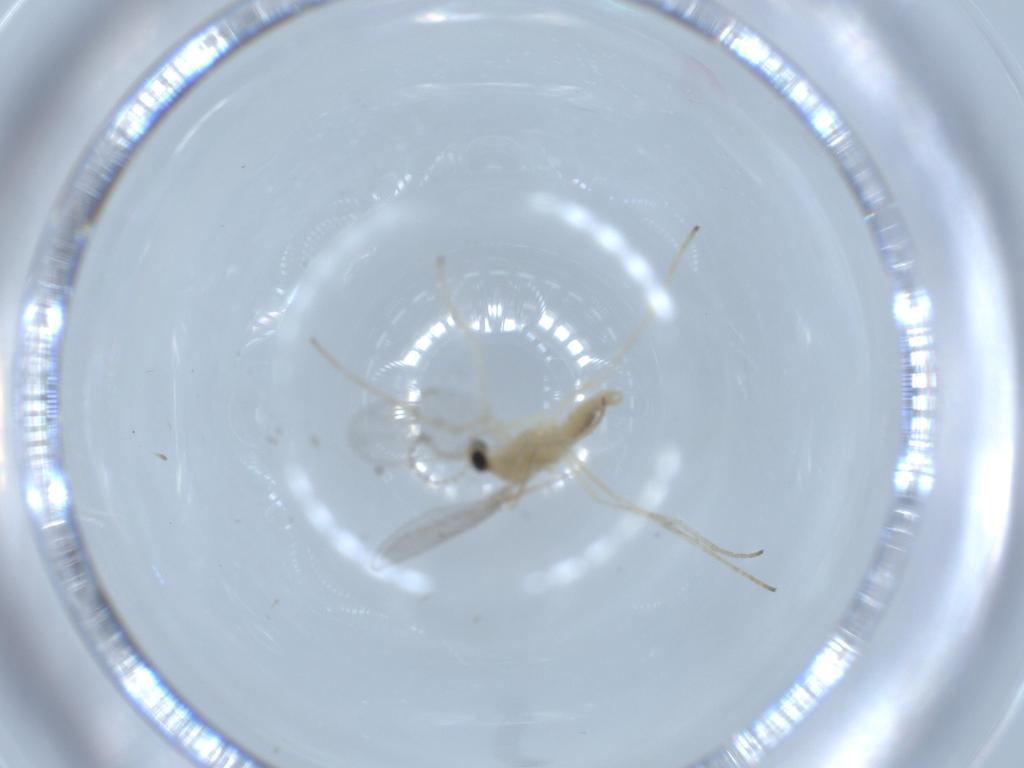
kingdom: Animalia
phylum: Arthropoda
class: Insecta
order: Diptera
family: Cecidomyiidae
